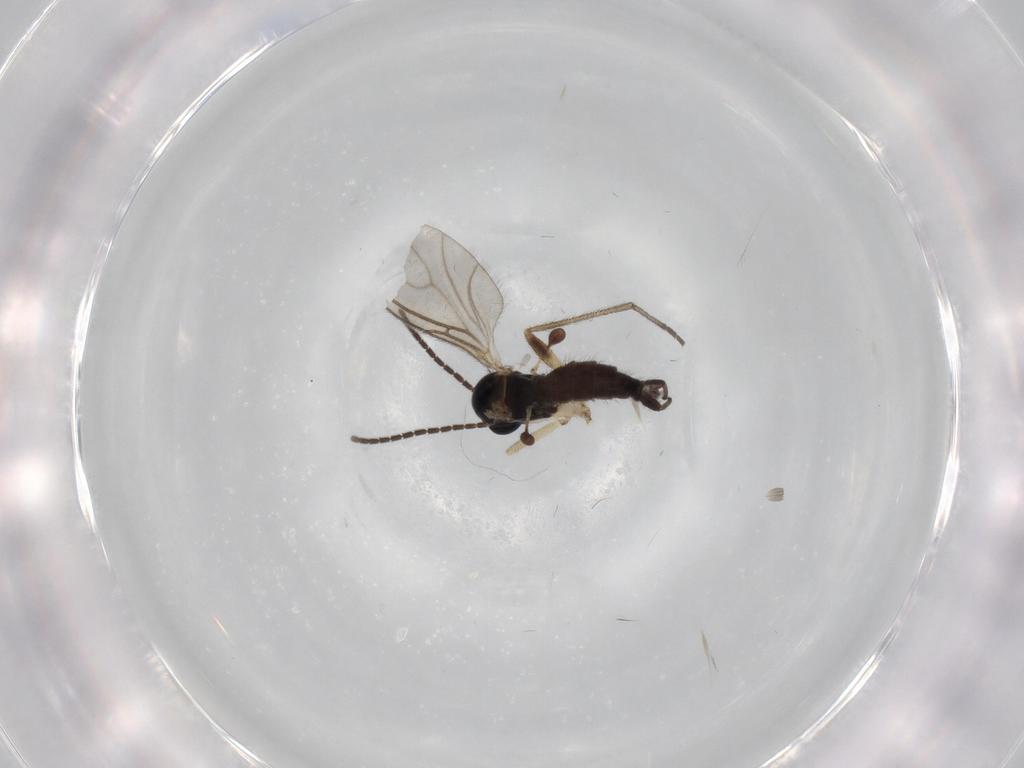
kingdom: Animalia
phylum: Arthropoda
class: Insecta
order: Diptera
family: Sciaridae
